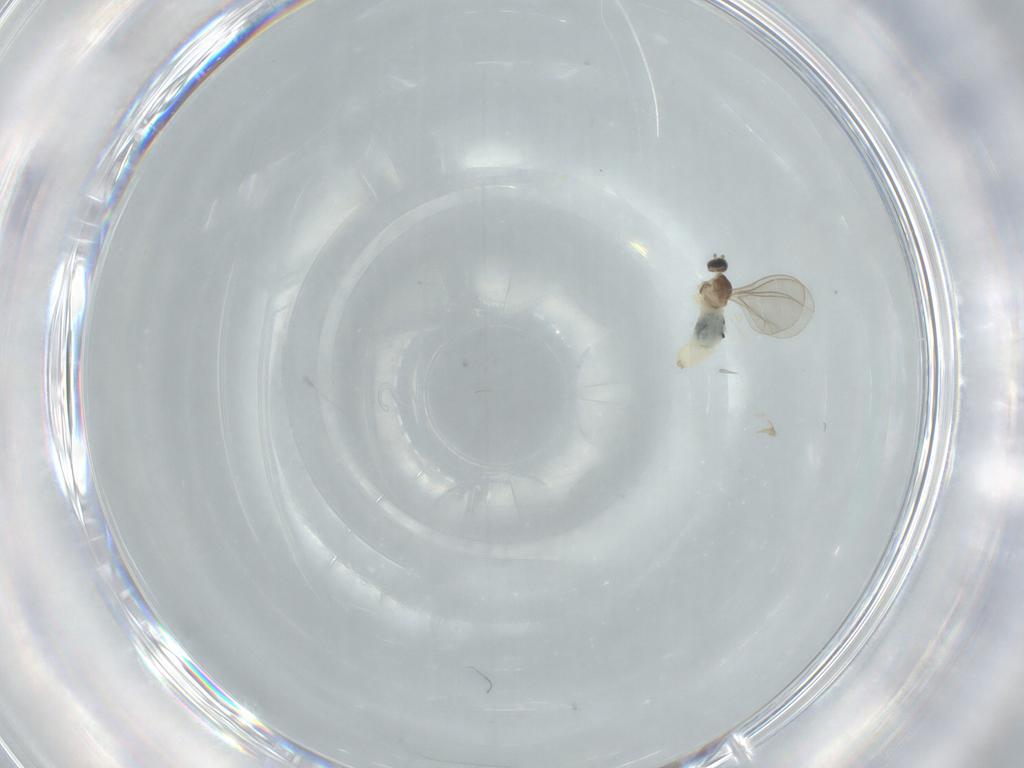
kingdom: Animalia
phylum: Arthropoda
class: Insecta
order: Diptera
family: Cecidomyiidae
